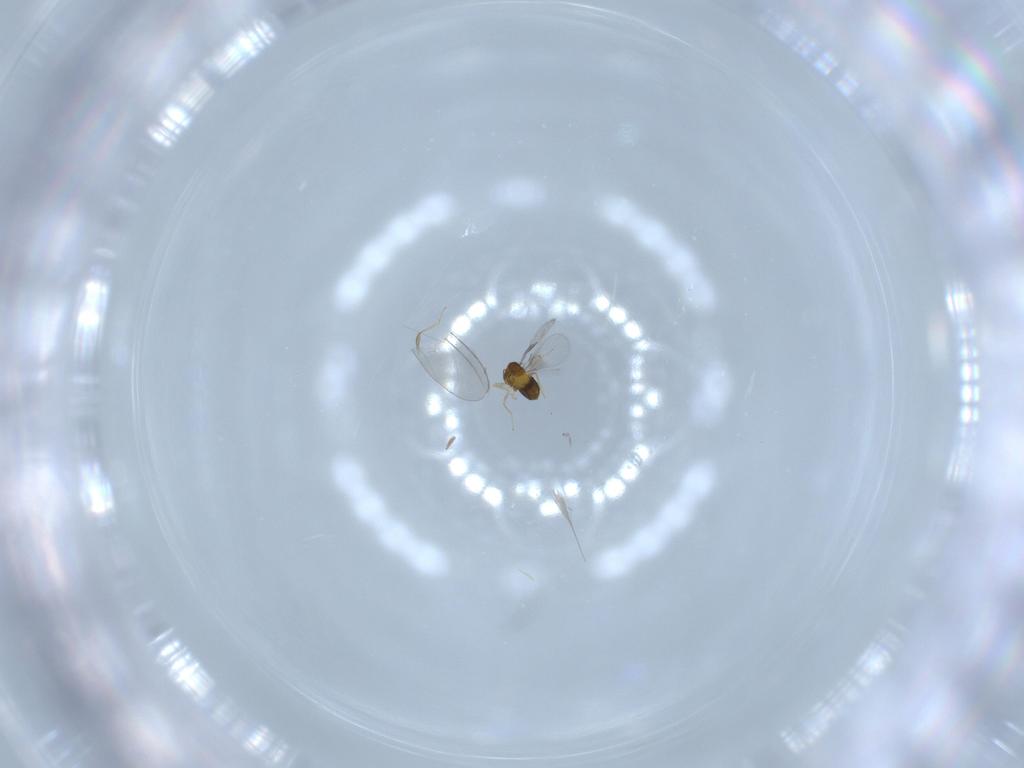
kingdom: Animalia
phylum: Arthropoda
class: Insecta
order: Hymenoptera
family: Trichogrammatidae
